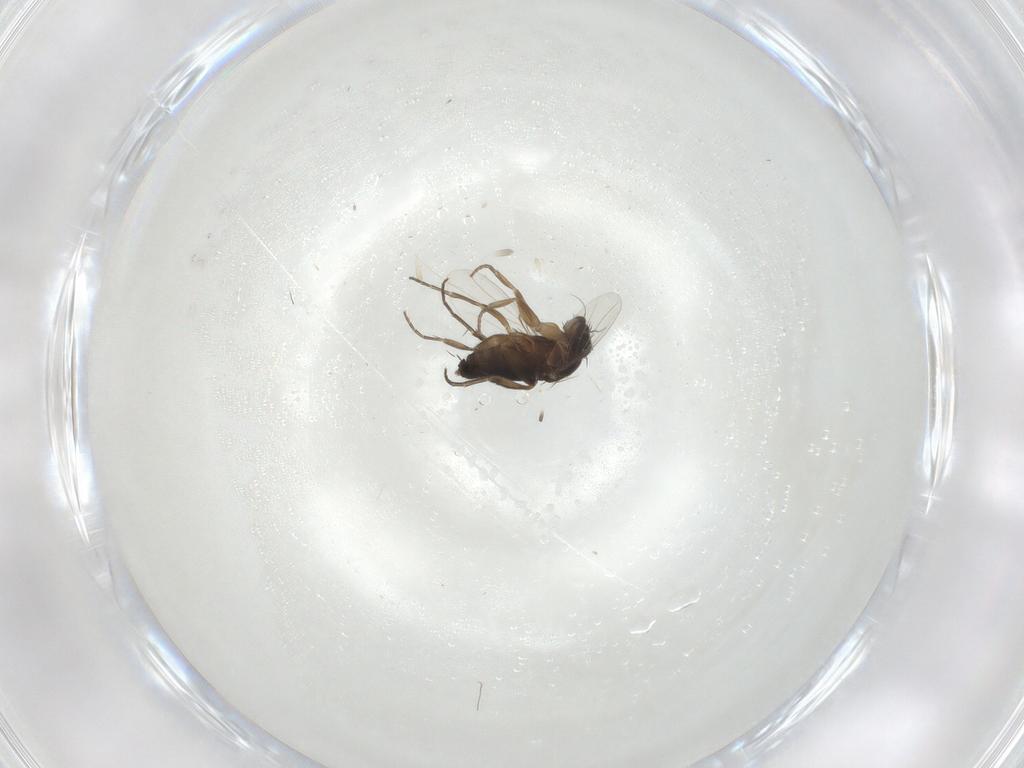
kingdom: Animalia
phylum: Arthropoda
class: Insecta
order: Diptera
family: Phoridae
